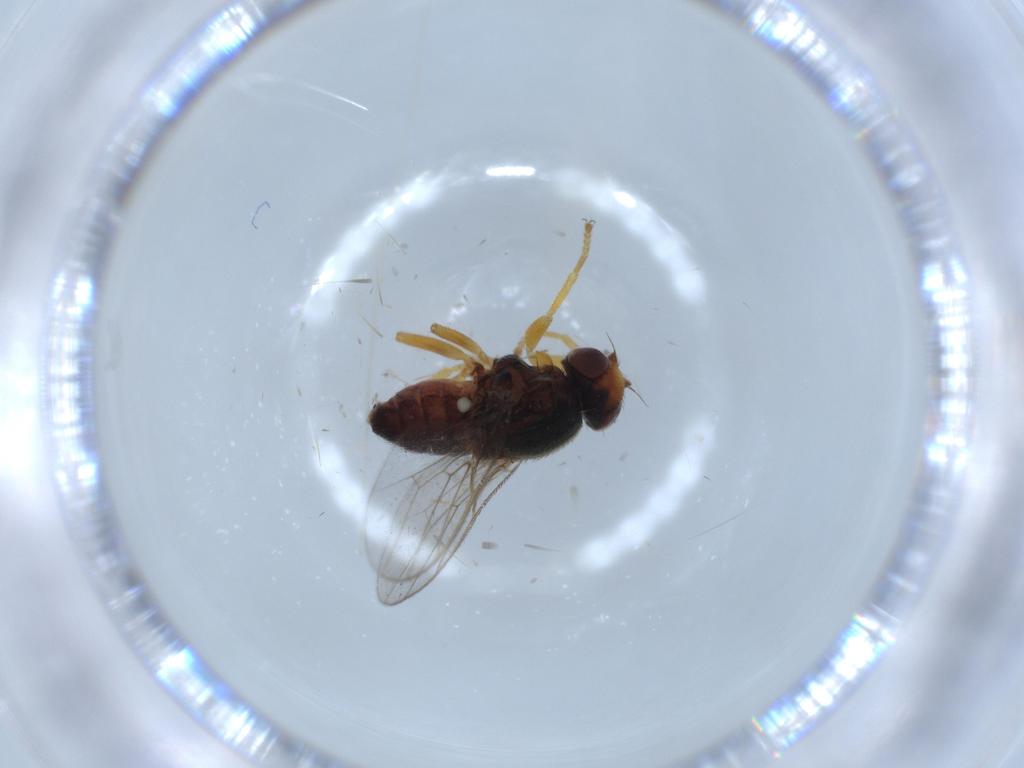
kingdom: Animalia
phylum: Arthropoda
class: Insecta
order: Diptera
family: Sciaridae
